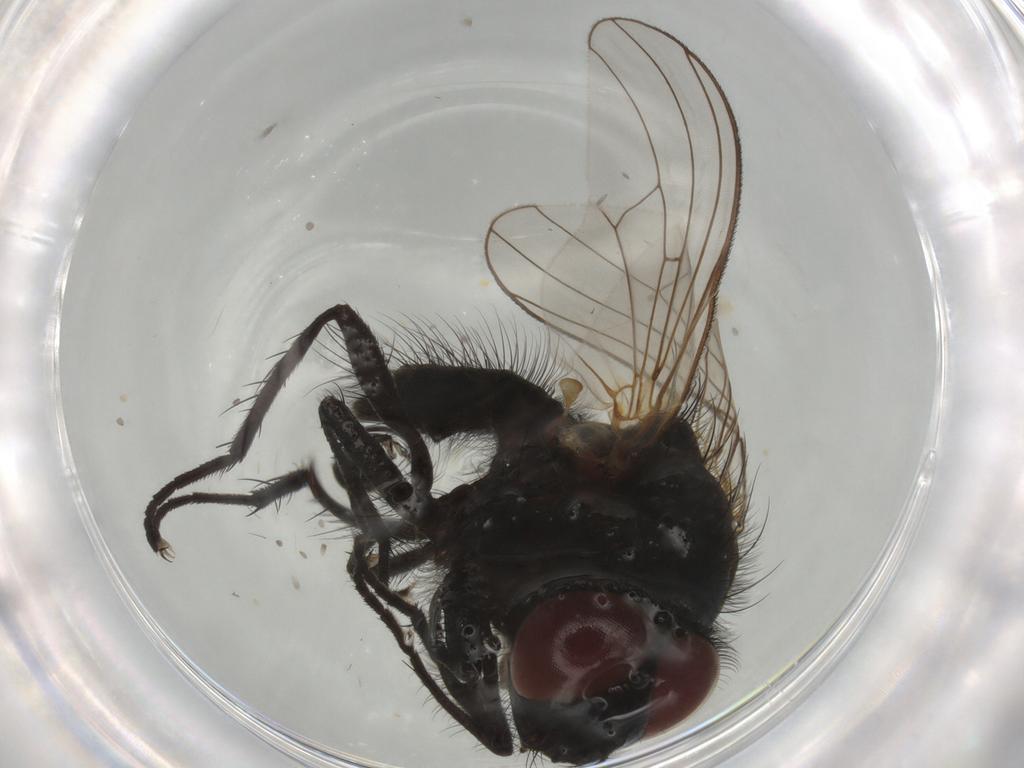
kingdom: Animalia
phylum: Arthropoda
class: Insecta
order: Diptera
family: Anthomyiidae
